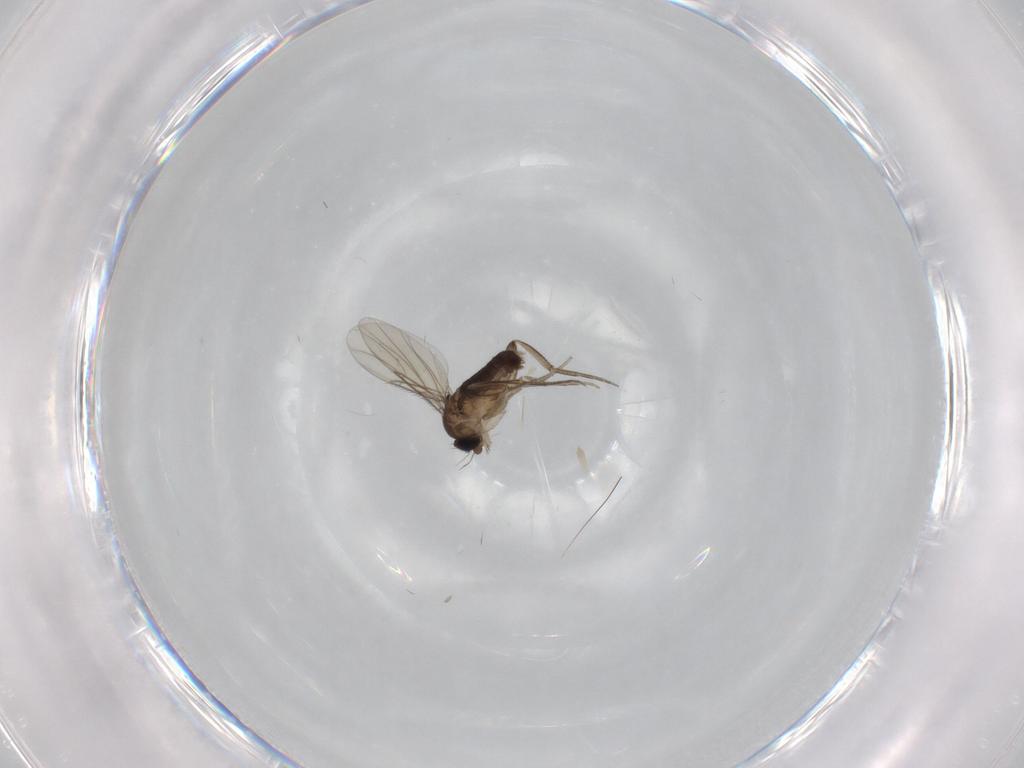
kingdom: Animalia
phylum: Arthropoda
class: Insecta
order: Diptera
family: Phoridae
